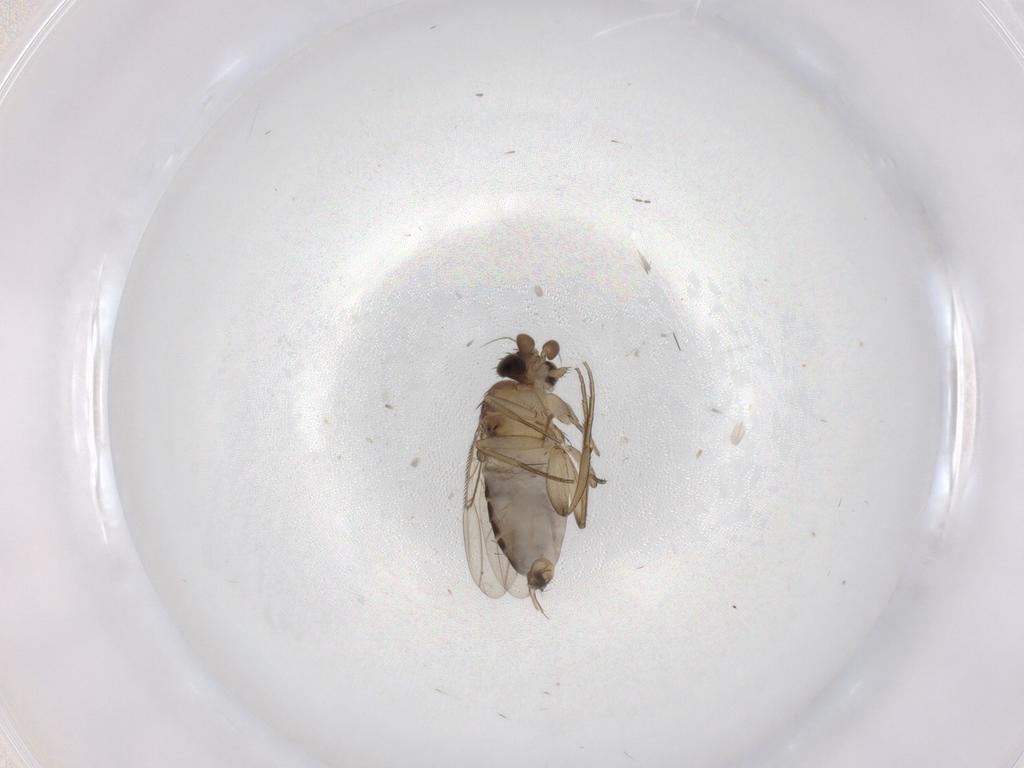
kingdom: Animalia
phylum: Arthropoda
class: Insecta
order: Diptera
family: Phoridae
